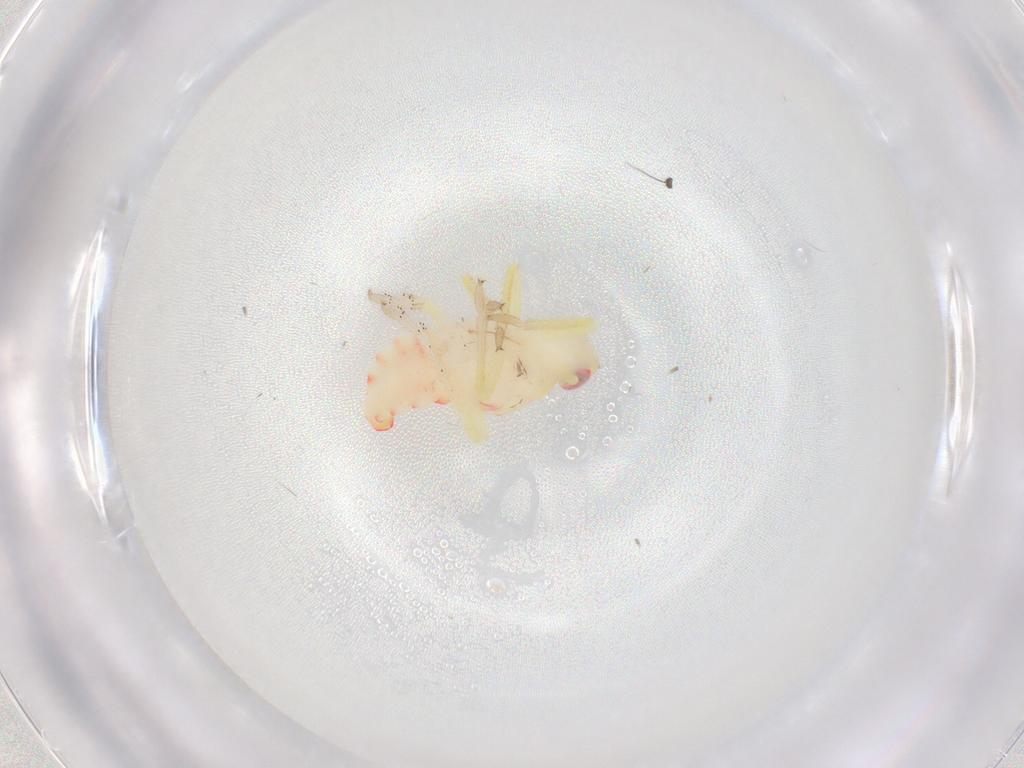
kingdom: Animalia
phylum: Arthropoda
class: Insecta
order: Hemiptera
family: Tropiduchidae
